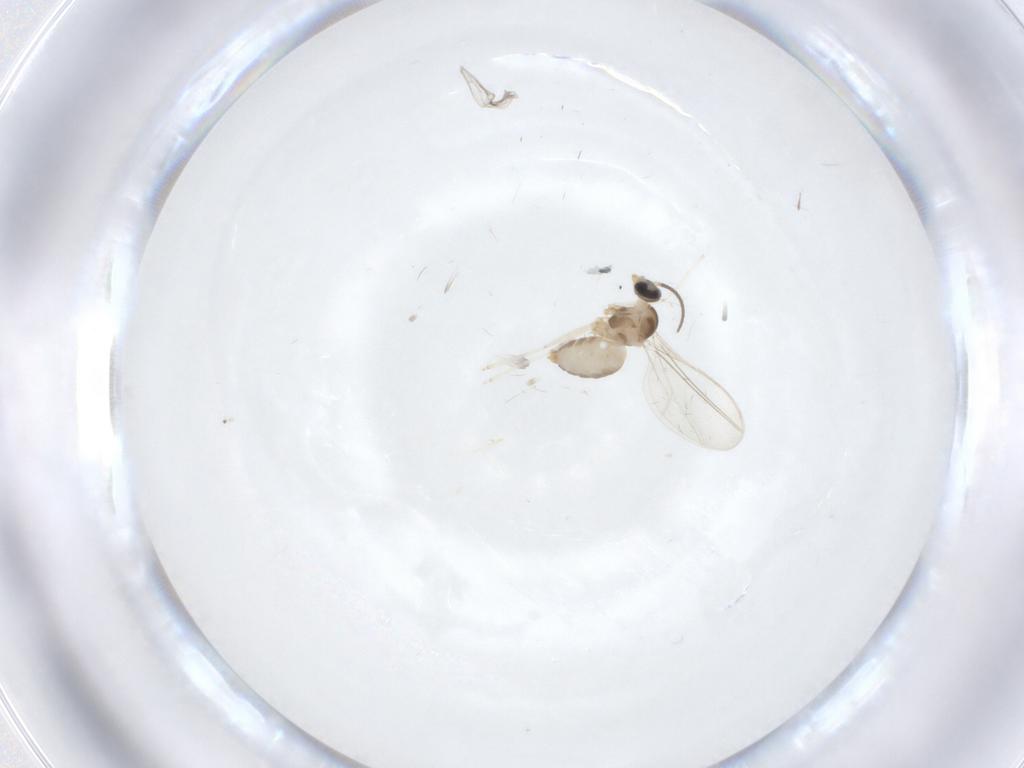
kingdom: Animalia
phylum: Arthropoda
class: Insecta
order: Diptera
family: Cecidomyiidae
